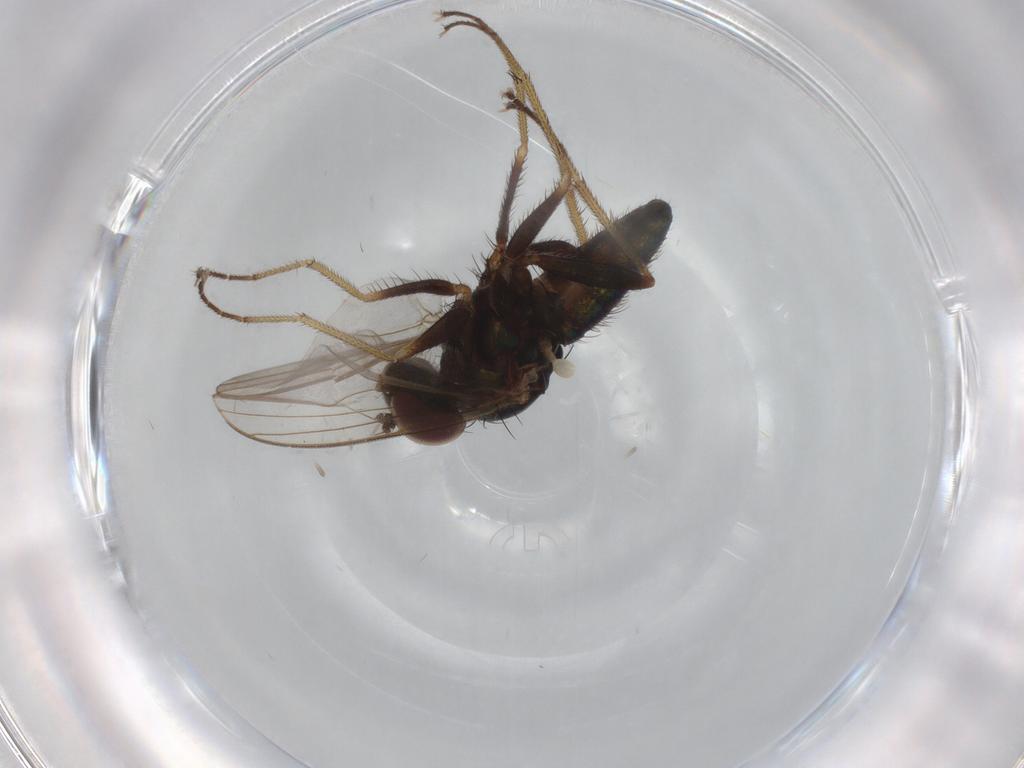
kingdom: Animalia
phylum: Arthropoda
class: Insecta
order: Diptera
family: Dolichopodidae
